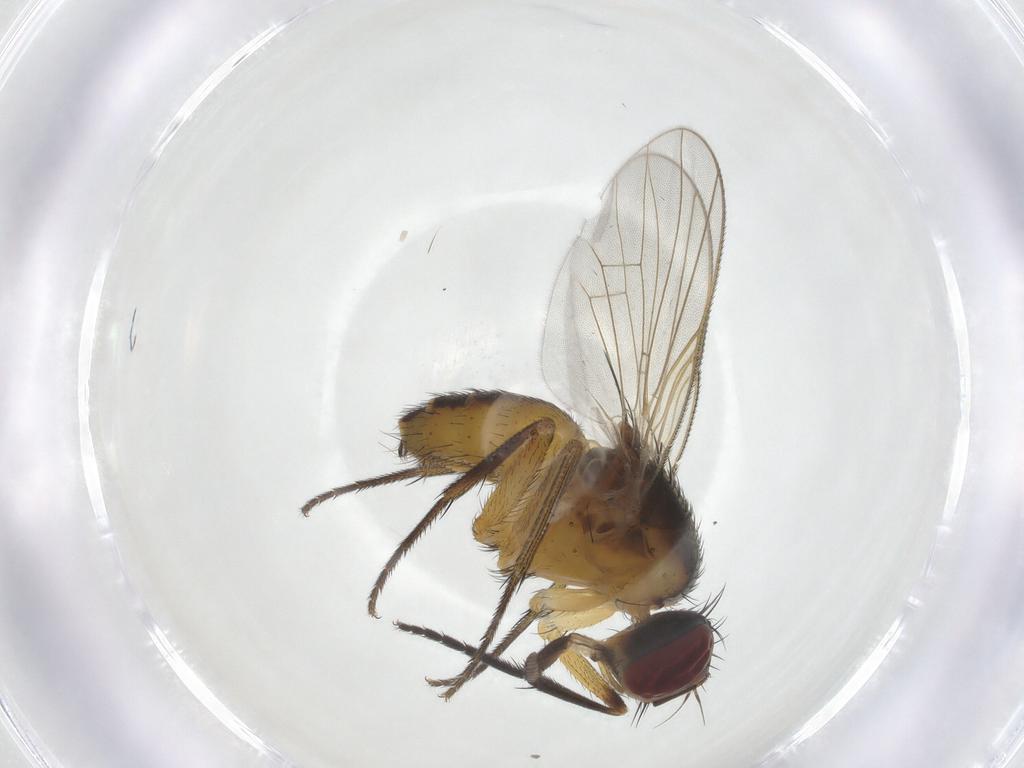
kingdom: Animalia
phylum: Arthropoda
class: Insecta
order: Diptera
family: Muscidae
